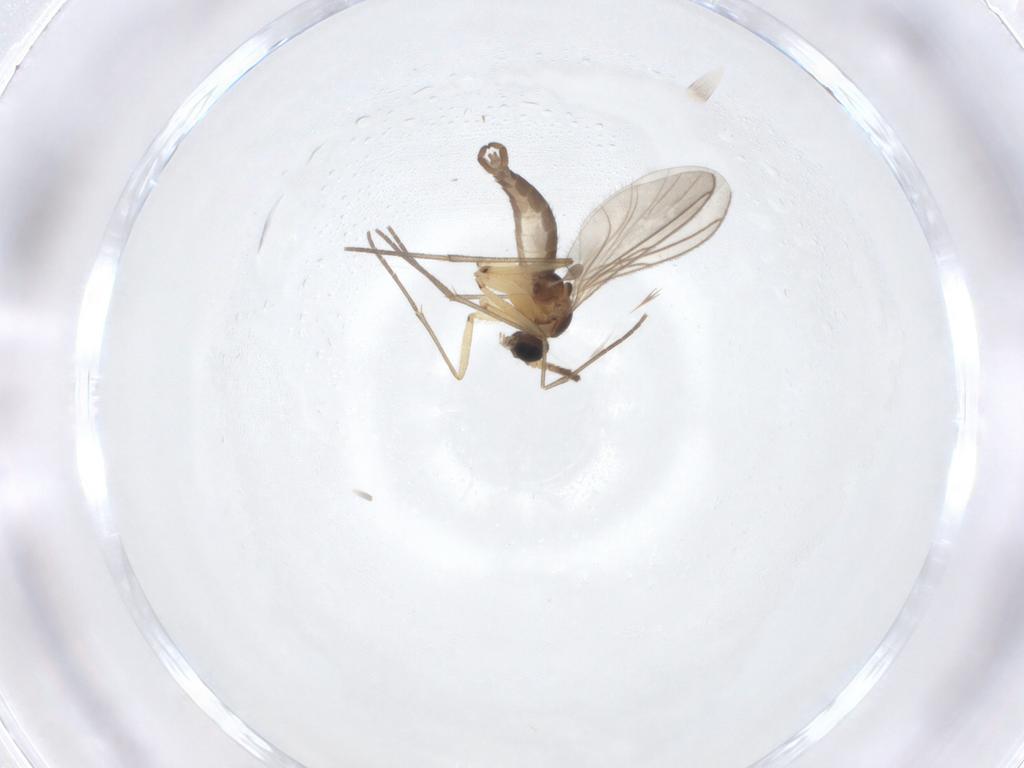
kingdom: Animalia
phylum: Arthropoda
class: Insecta
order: Diptera
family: Sciaridae
